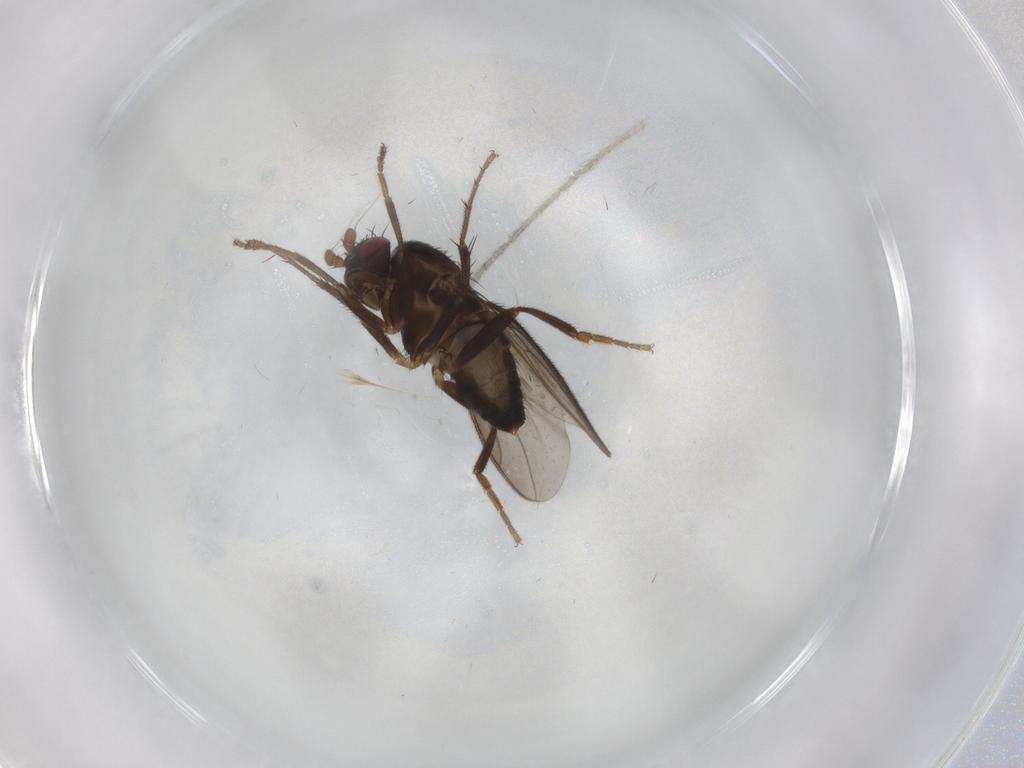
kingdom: Animalia
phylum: Arthropoda
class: Insecta
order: Diptera
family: Sphaeroceridae
